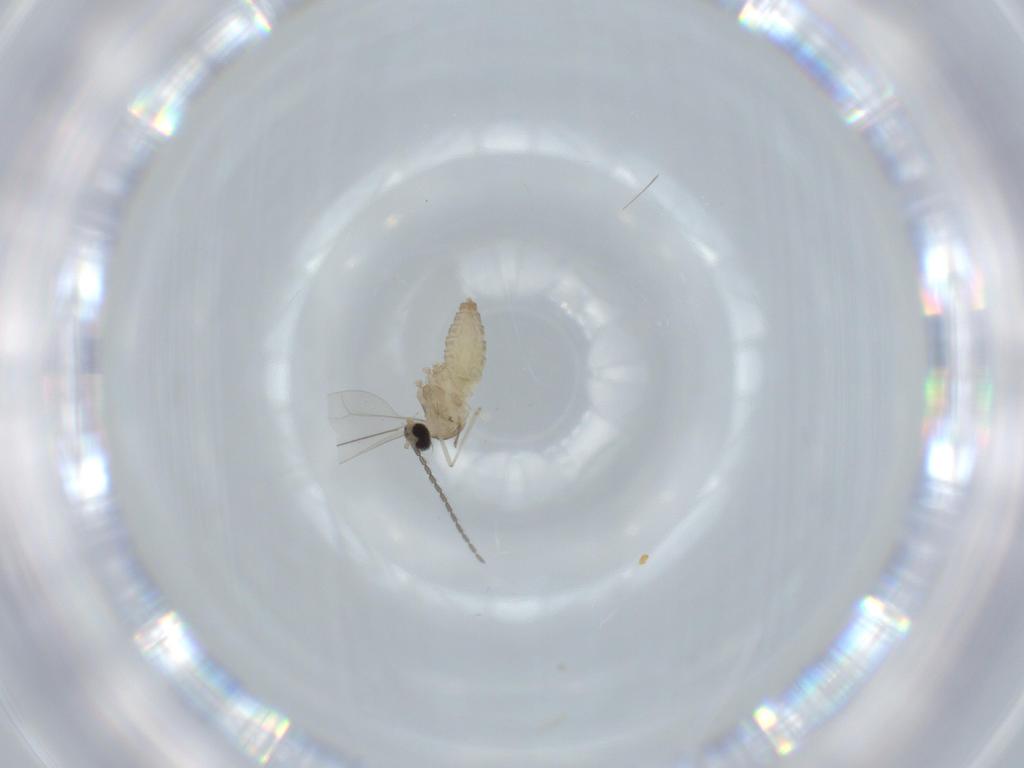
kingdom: Animalia
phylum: Arthropoda
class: Insecta
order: Diptera
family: Cecidomyiidae
